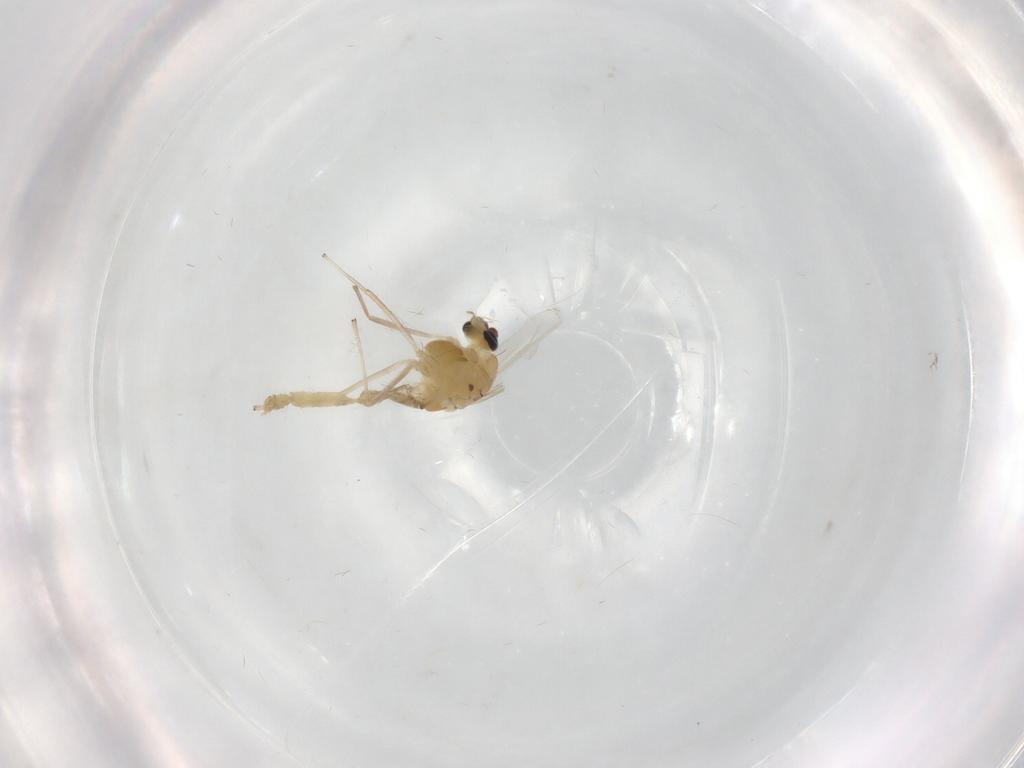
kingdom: Animalia
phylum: Arthropoda
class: Insecta
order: Diptera
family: Chironomidae
